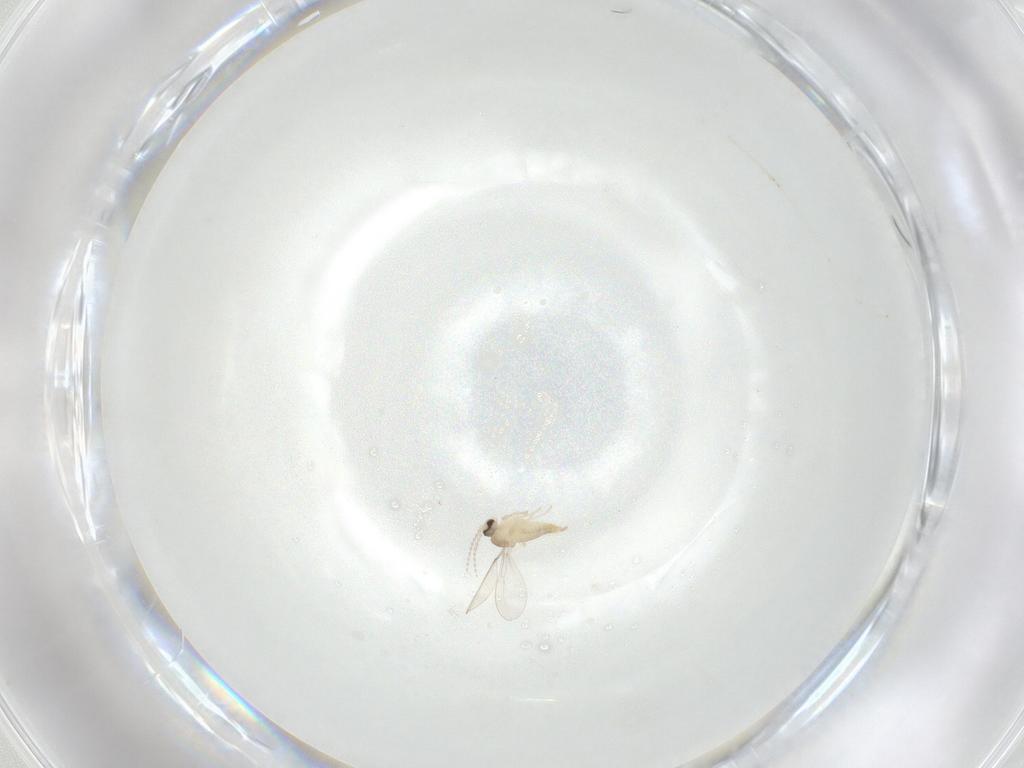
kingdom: Animalia
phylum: Arthropoda
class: Insecta
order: Diptera
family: Cecidomyiidae
